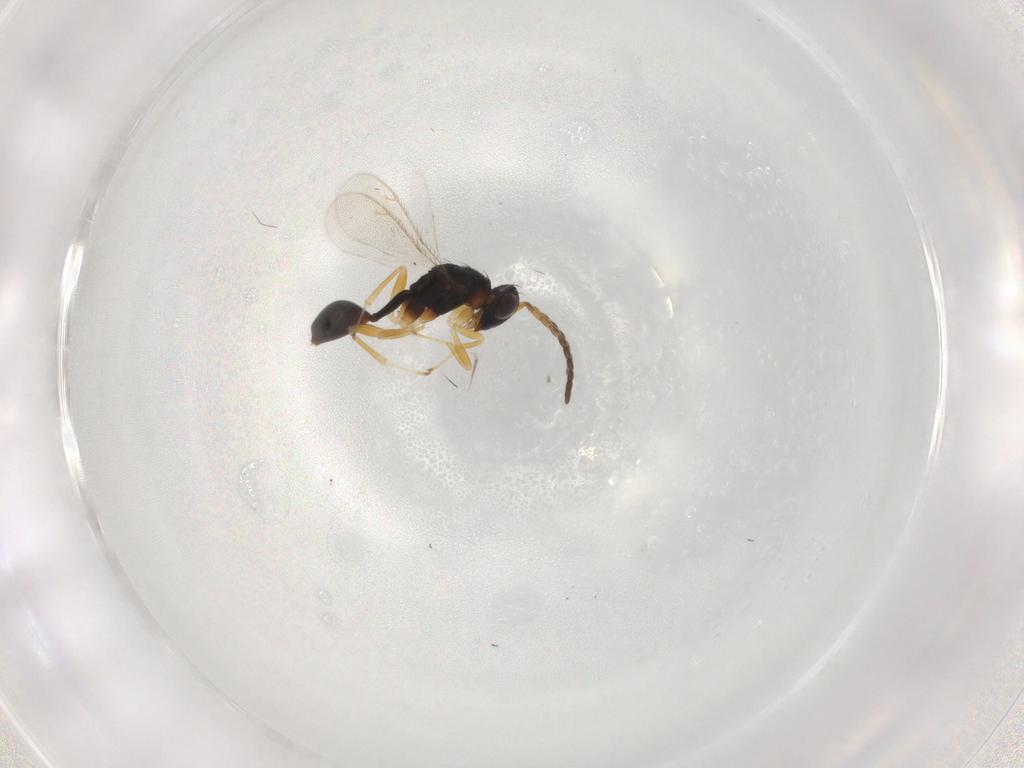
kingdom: Animalia
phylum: Arthropoda
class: Insecta
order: Hymenoptera
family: Diparidae
